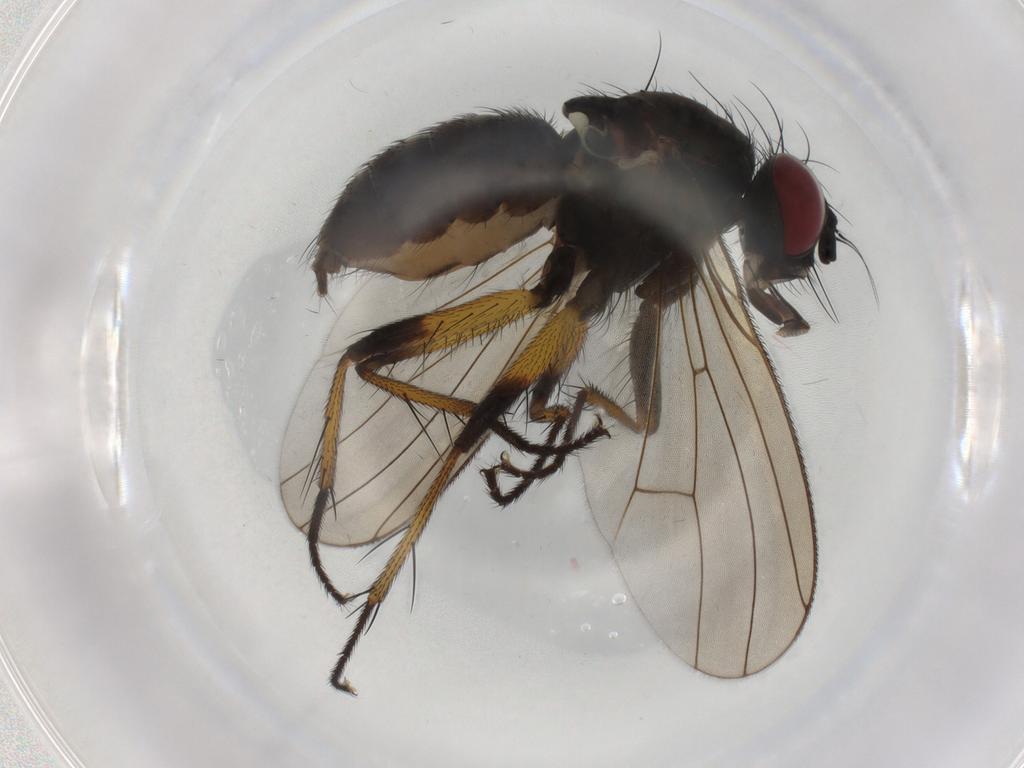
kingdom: Animalia
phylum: Arthropoda
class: Insecta
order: Diptera
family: Muscidae
